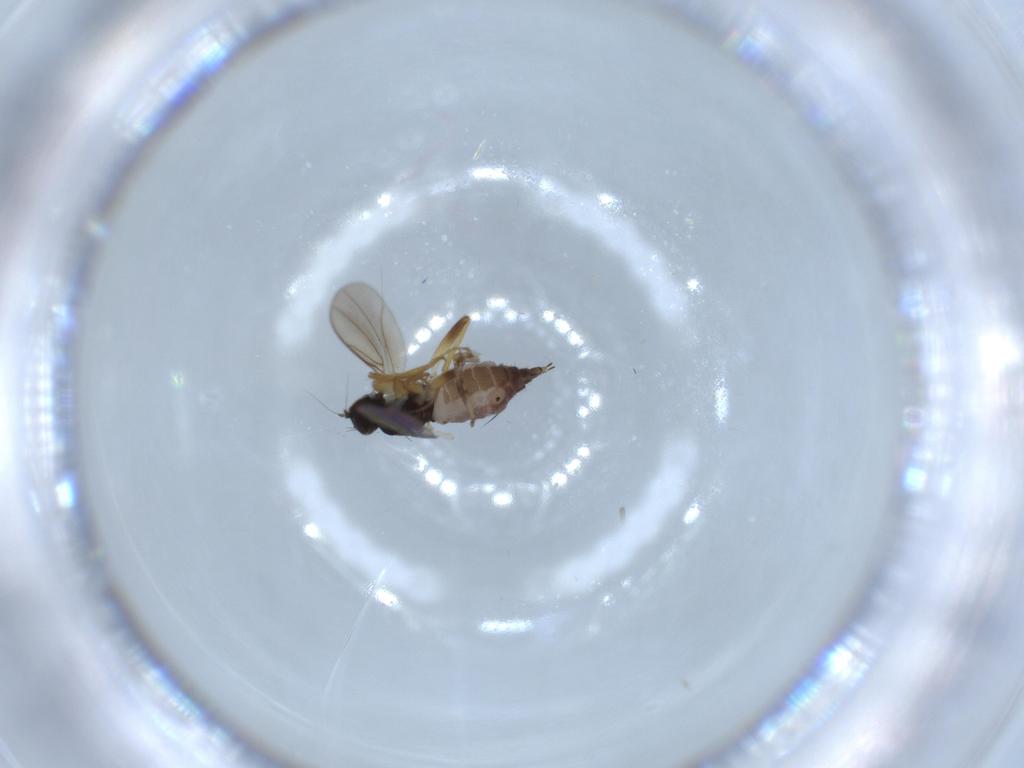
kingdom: Animalia
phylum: Arthropoda
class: Insecta
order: Diptera
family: Hybotidae
